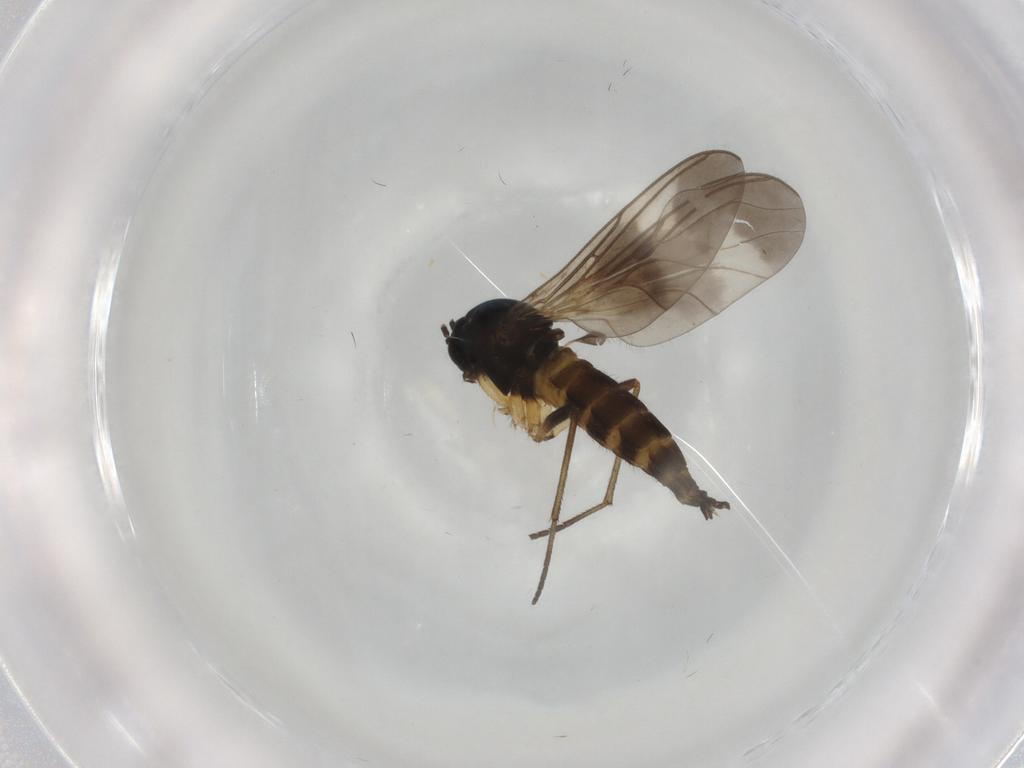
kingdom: Animalia
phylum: Arthropoda
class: Insecta
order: Diptera
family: Sciaridae
